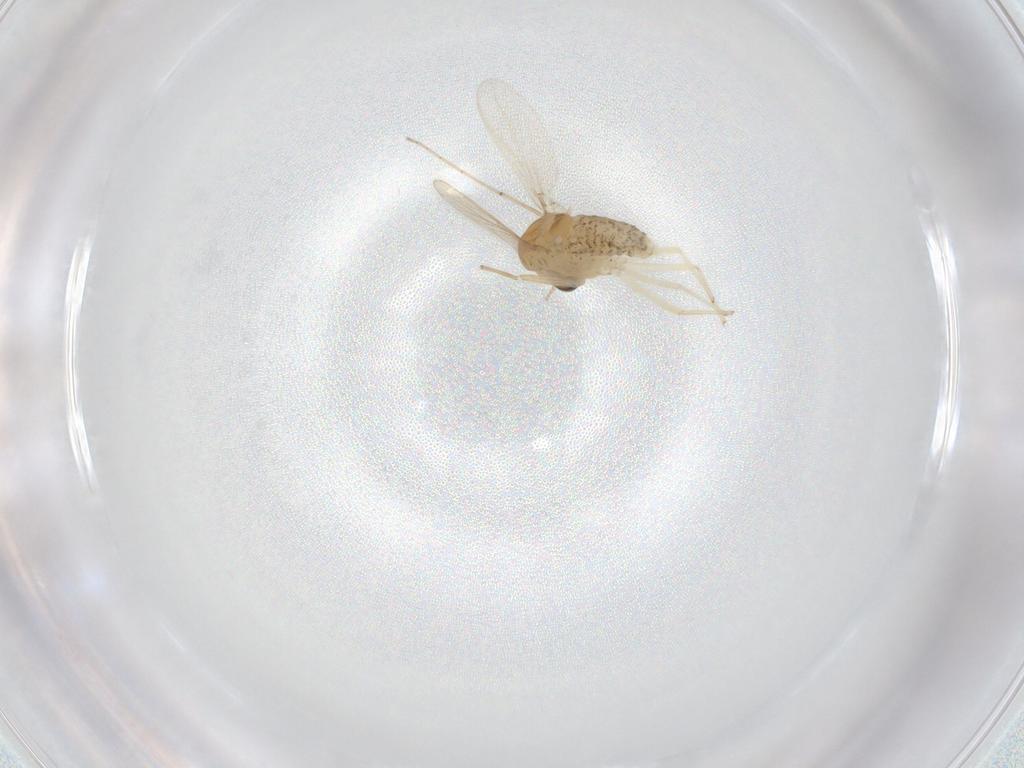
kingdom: Animalia
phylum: Arthropoda
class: Insecta
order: Diptera
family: Chironomidae
